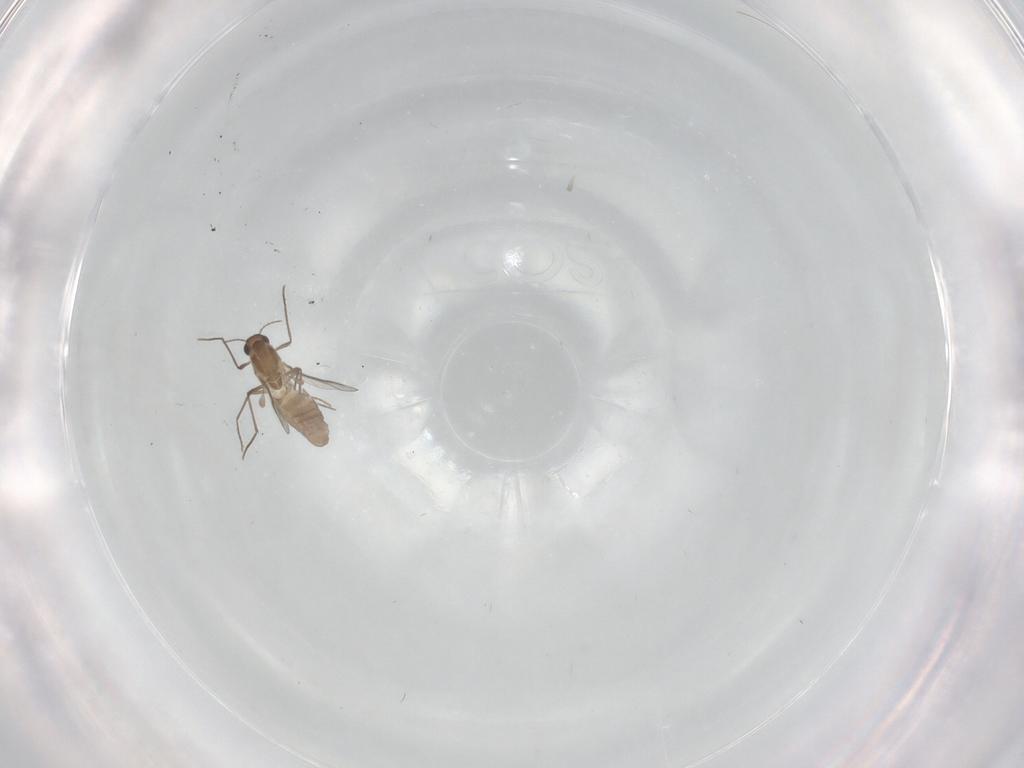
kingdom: Animalia
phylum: Arthropoda
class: Insecta
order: Diptera
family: Chironomidae
